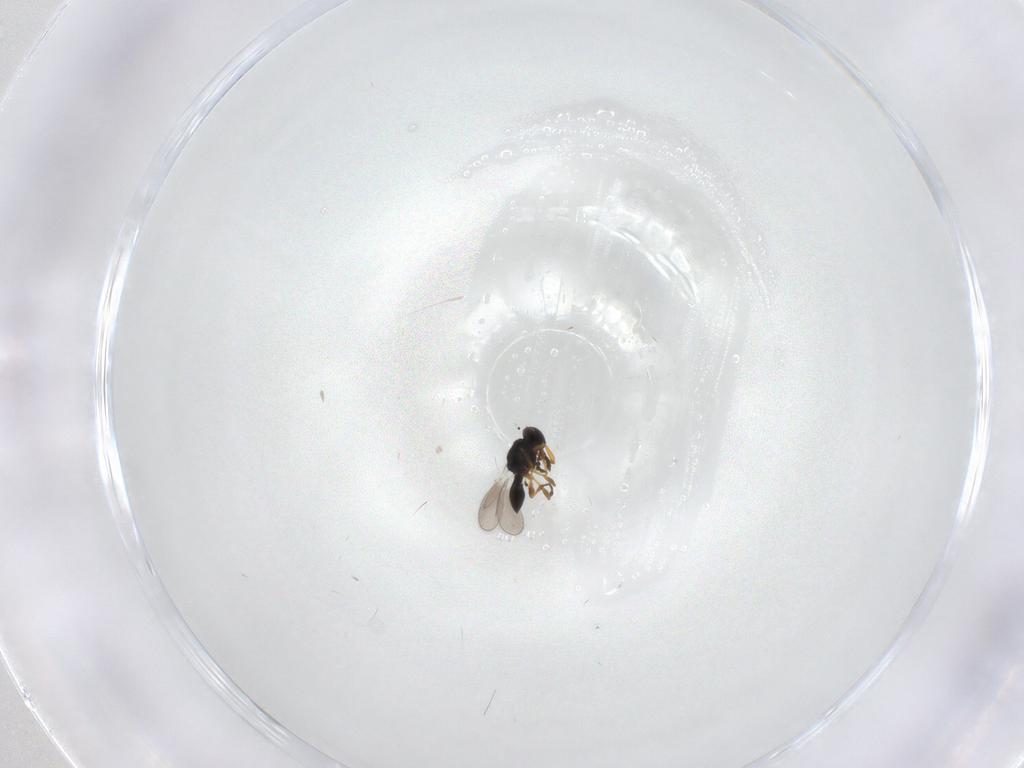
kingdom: Animalia
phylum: Arthropoda
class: Insecta
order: Hymenoptera
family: Platygastridae
